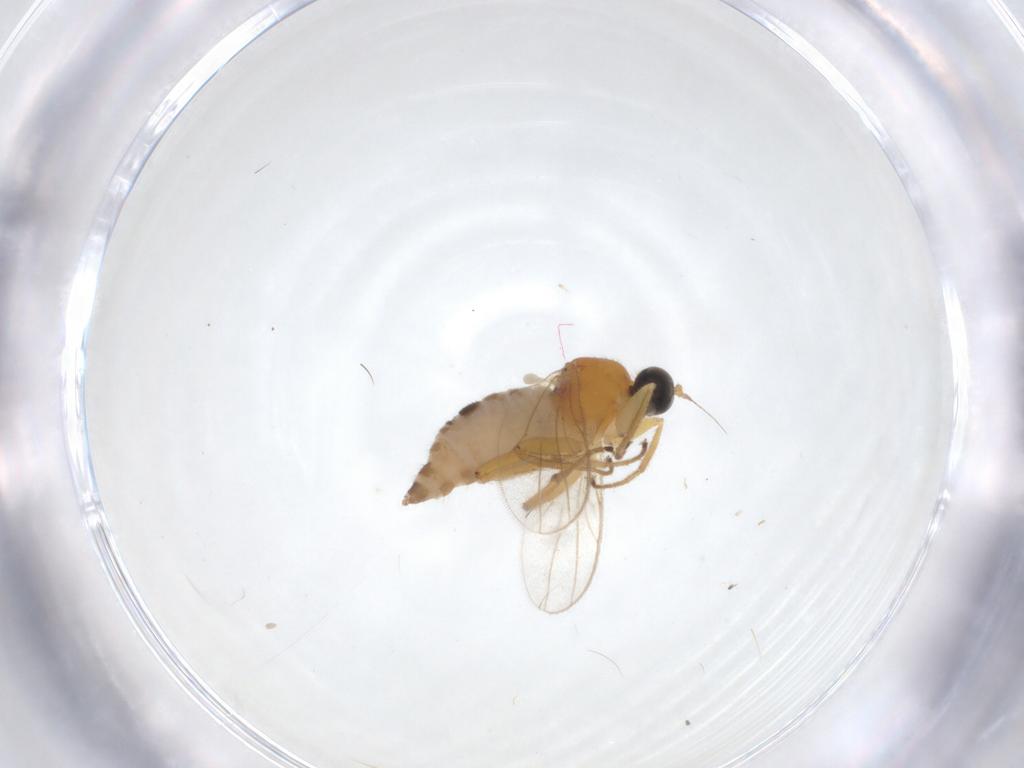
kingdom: Animalia
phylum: Arthropoda
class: Insecta
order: Diptera
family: Hybotidae
